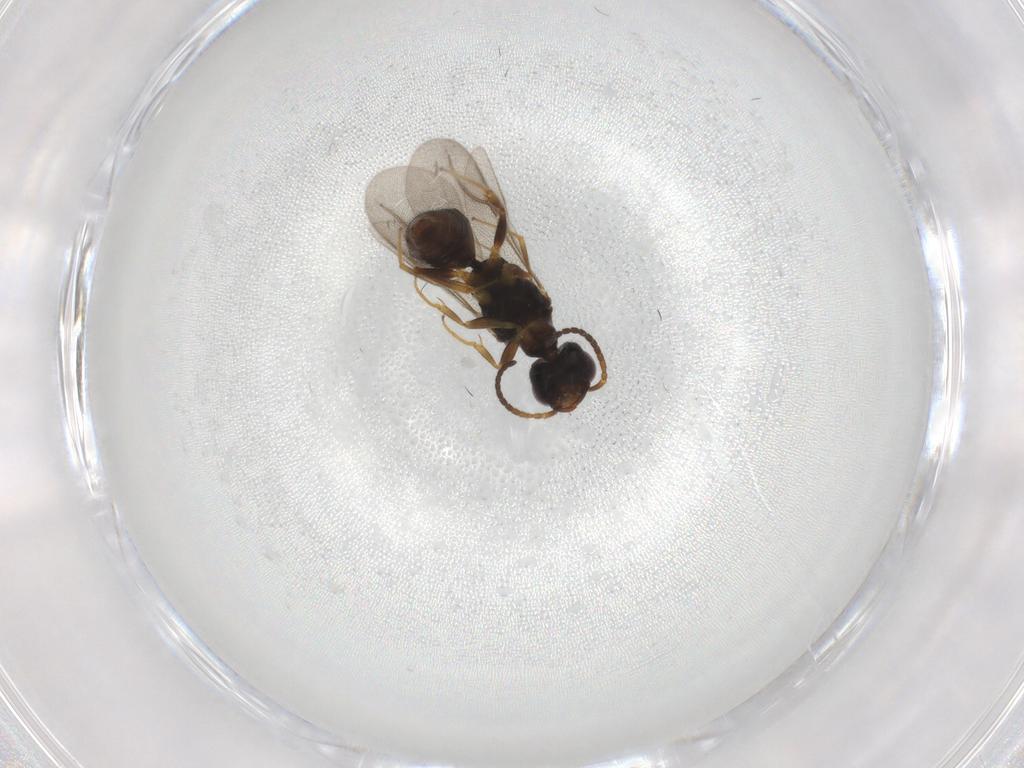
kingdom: Animalia
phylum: Arthropoda
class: Insecta
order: Hymenoptera
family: Bethylidae
